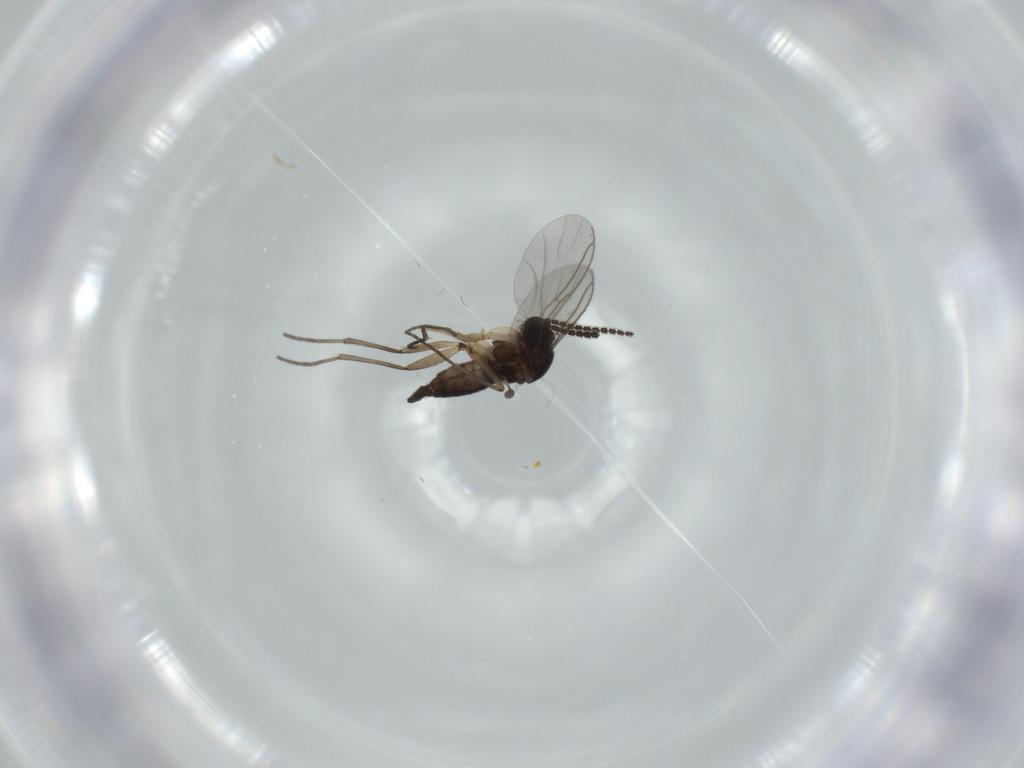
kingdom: Animalia
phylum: Arthropoda
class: Insecta
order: Diptera
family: Sciaridae
